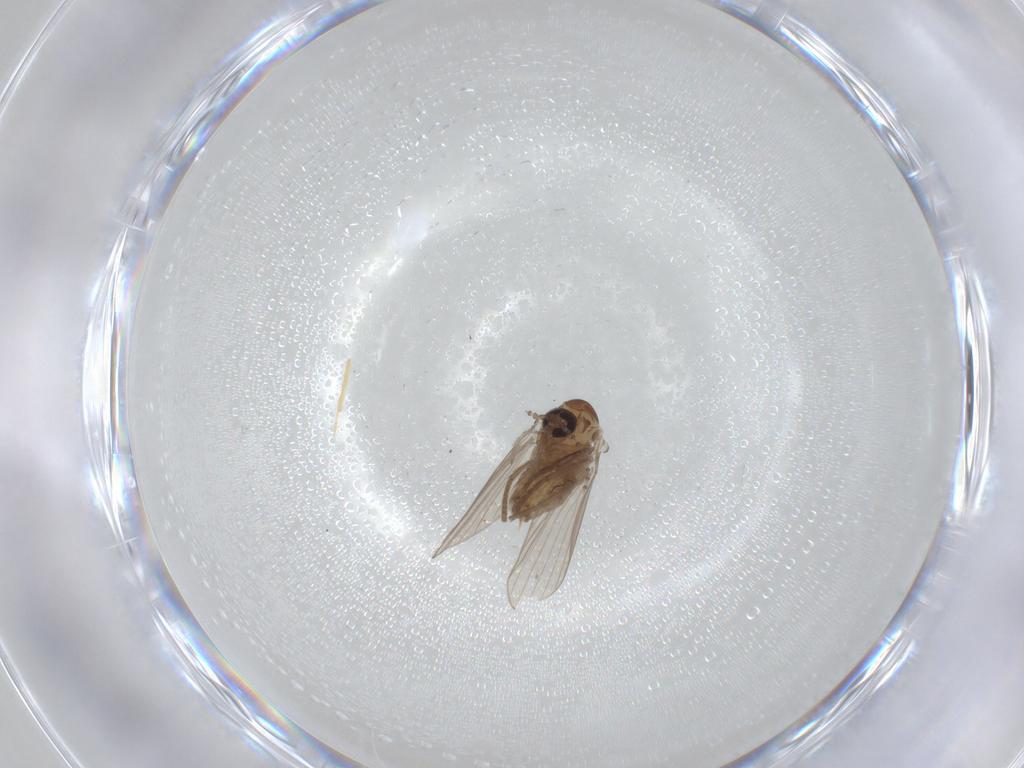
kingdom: Animalia
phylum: Arthropoda
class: Insecta
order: Diptera
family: Psychodidae
